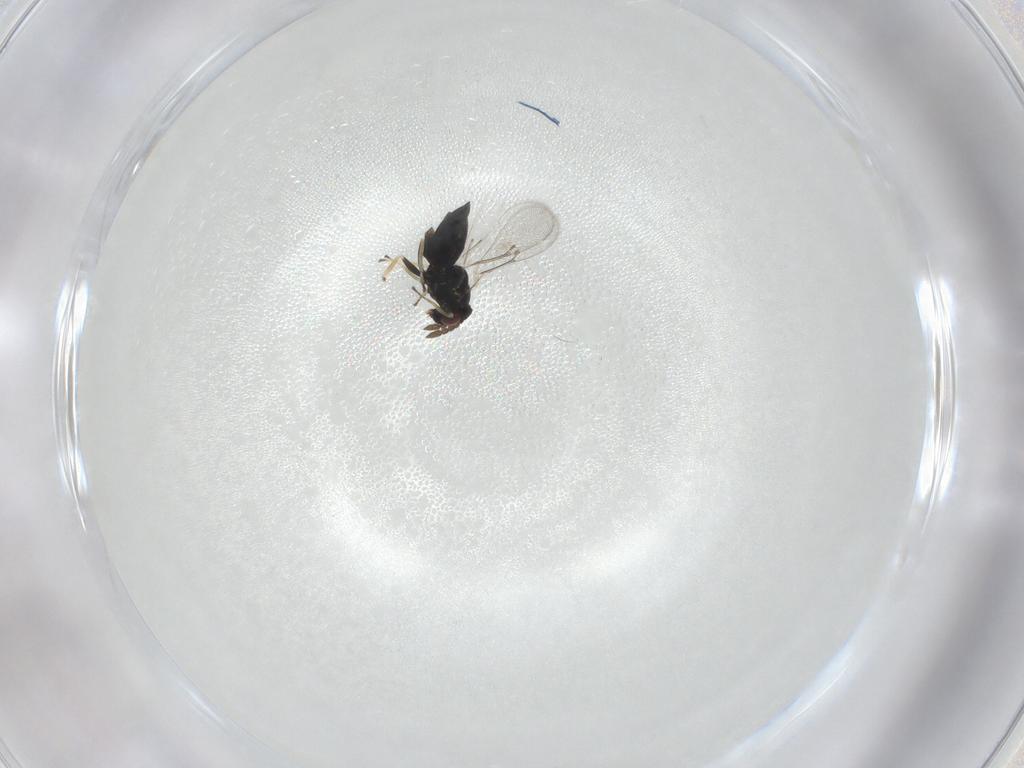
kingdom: Animalia
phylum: Arthropoda
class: Insecta
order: Hymenoptera
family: Eulophidae
